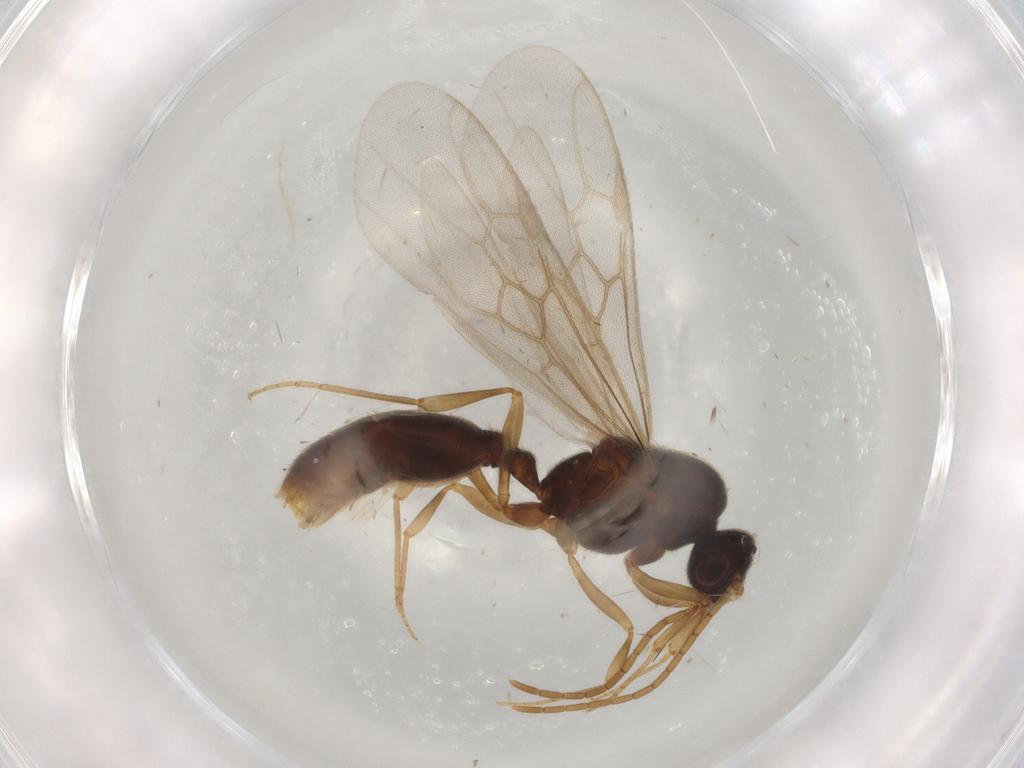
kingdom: Animalia
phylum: Arthropoda
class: Insecta
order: Hymenoptera
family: Formicidae
